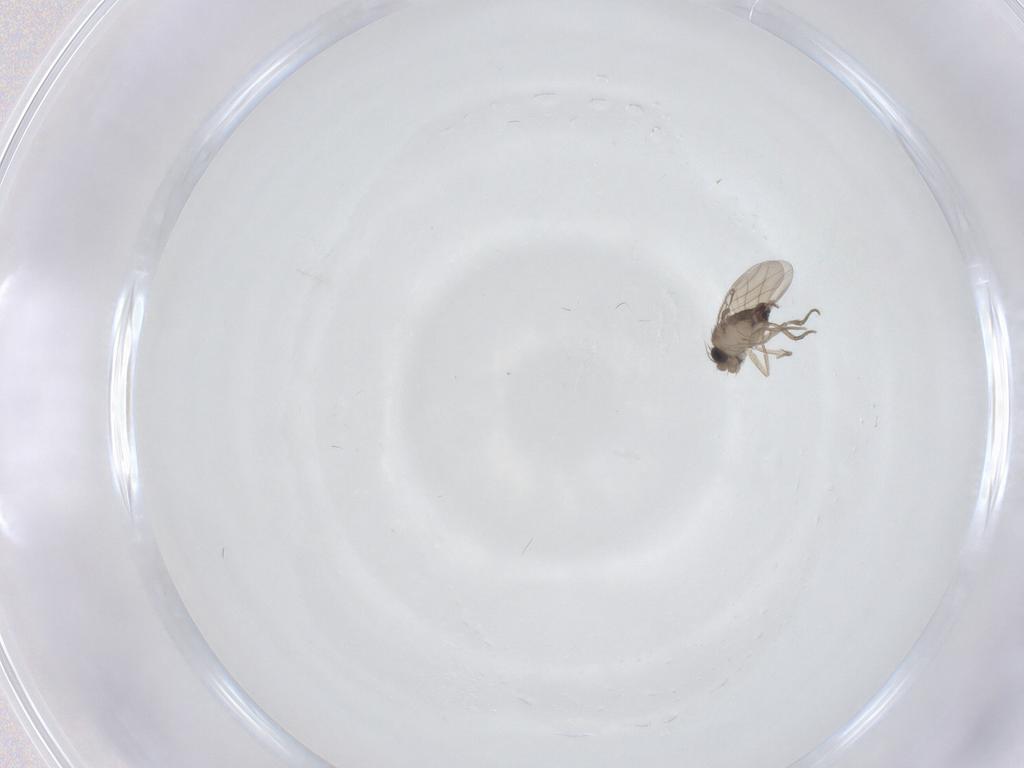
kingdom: Animalia
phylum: Arthropoda
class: Insecta
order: Diptera
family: Phoridae
